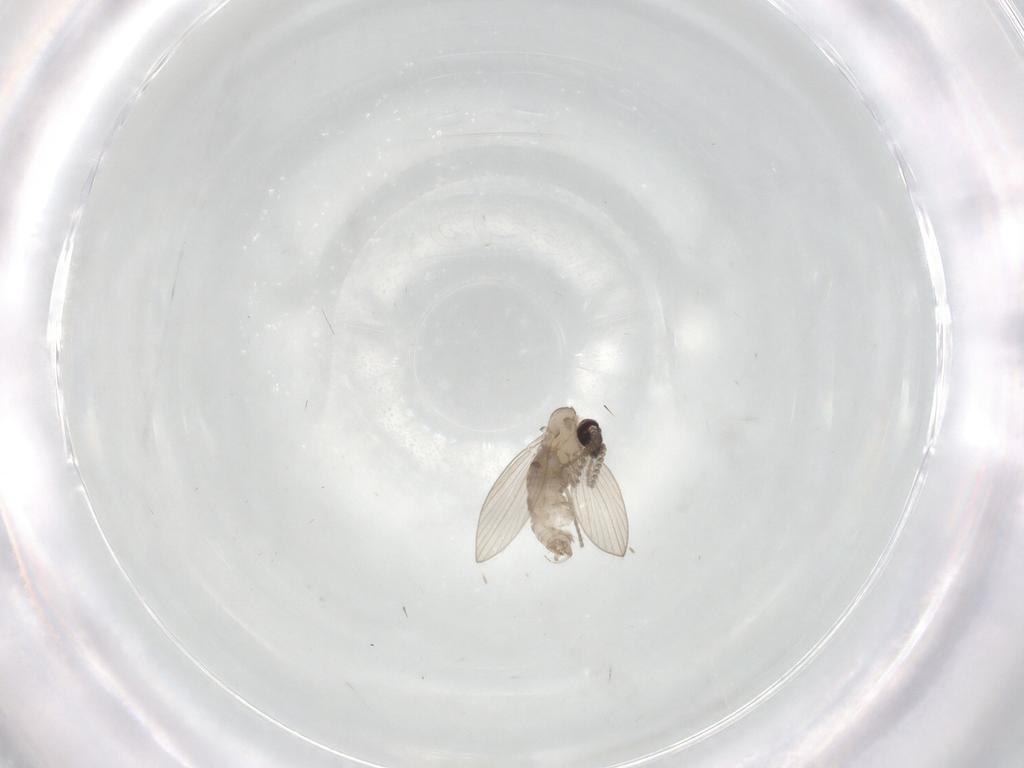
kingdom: Animalia
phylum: Arthropoda
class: Insecta
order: Diptera
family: Psychodidae
